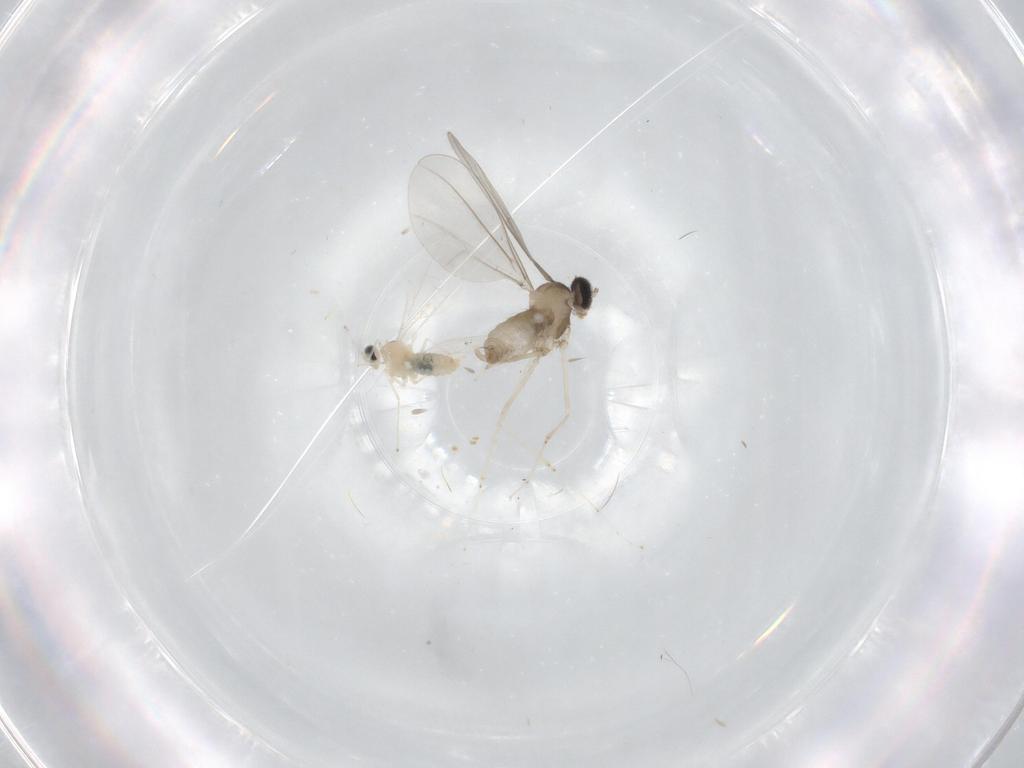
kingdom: Animalia
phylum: Arthropoda
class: Insecta
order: Diptera
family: Cecidomyiidae
